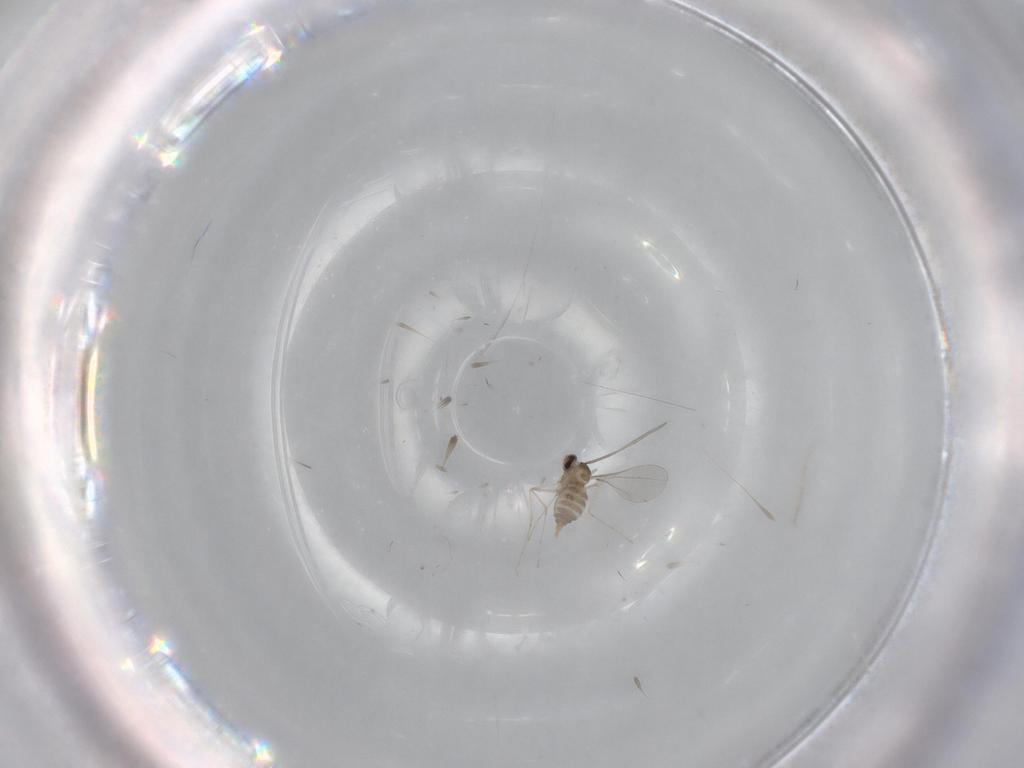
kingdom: Animalia
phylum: Arthropoda
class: Insecta
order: Diptera
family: Cecidomyiidae
